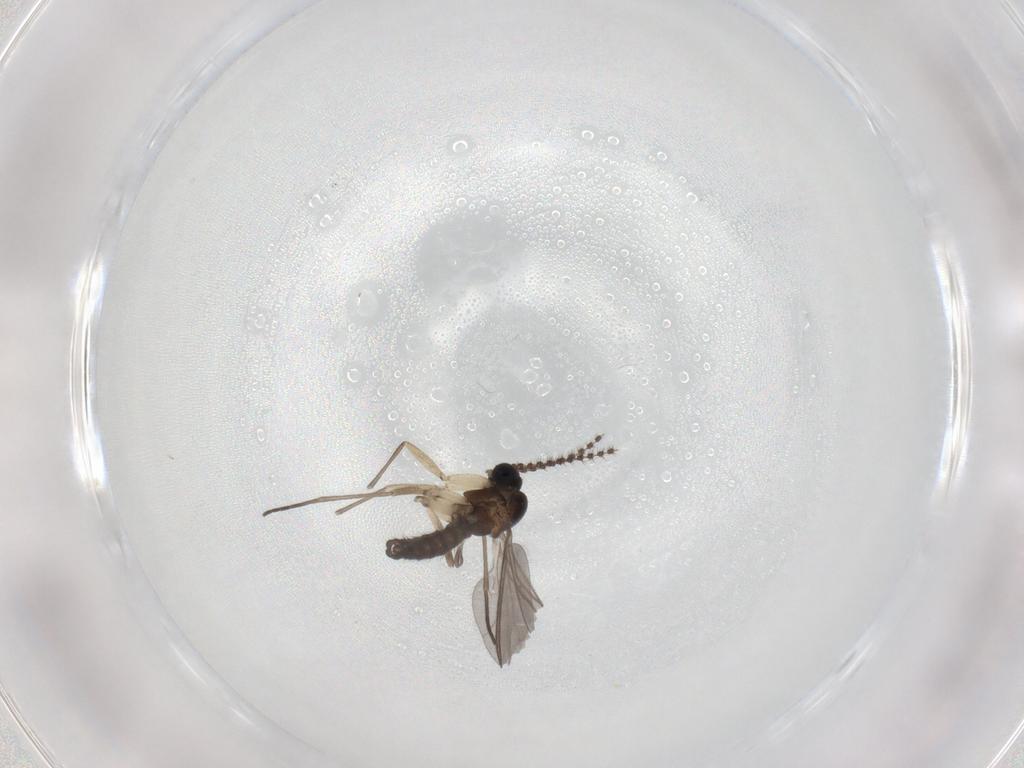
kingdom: Animalia
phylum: Arthropoda
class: Insecta
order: Diptera
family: Sciaridae
